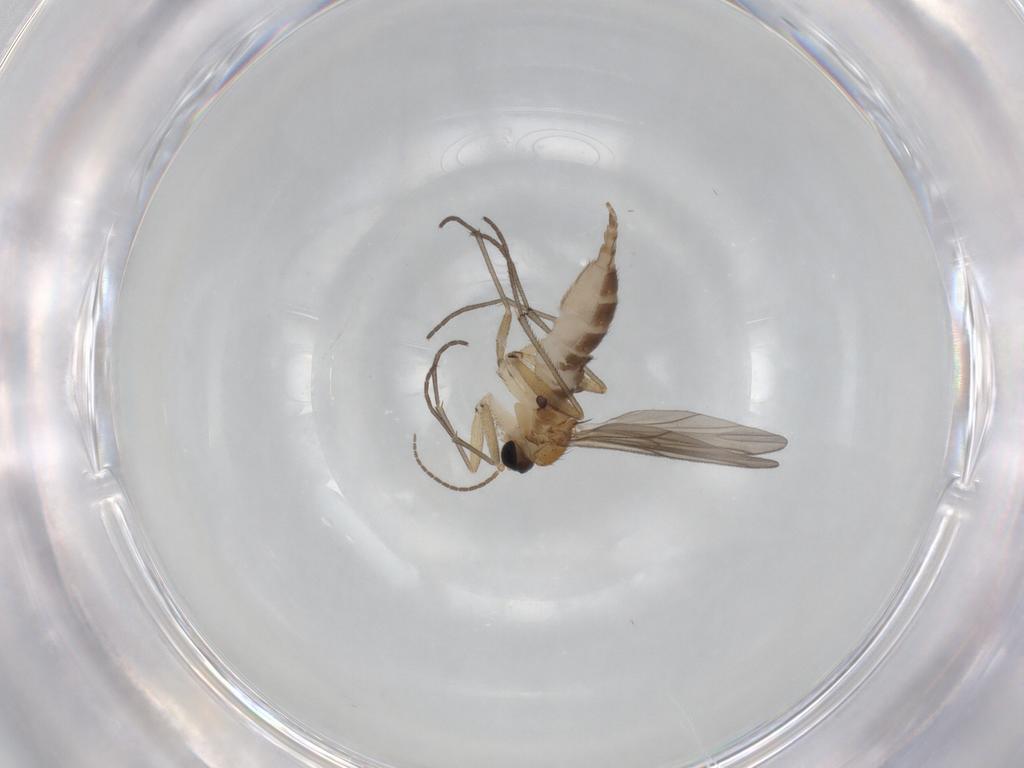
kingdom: Animalia
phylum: Arthropoda
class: Insecta
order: Diptera
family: Sciaridae
